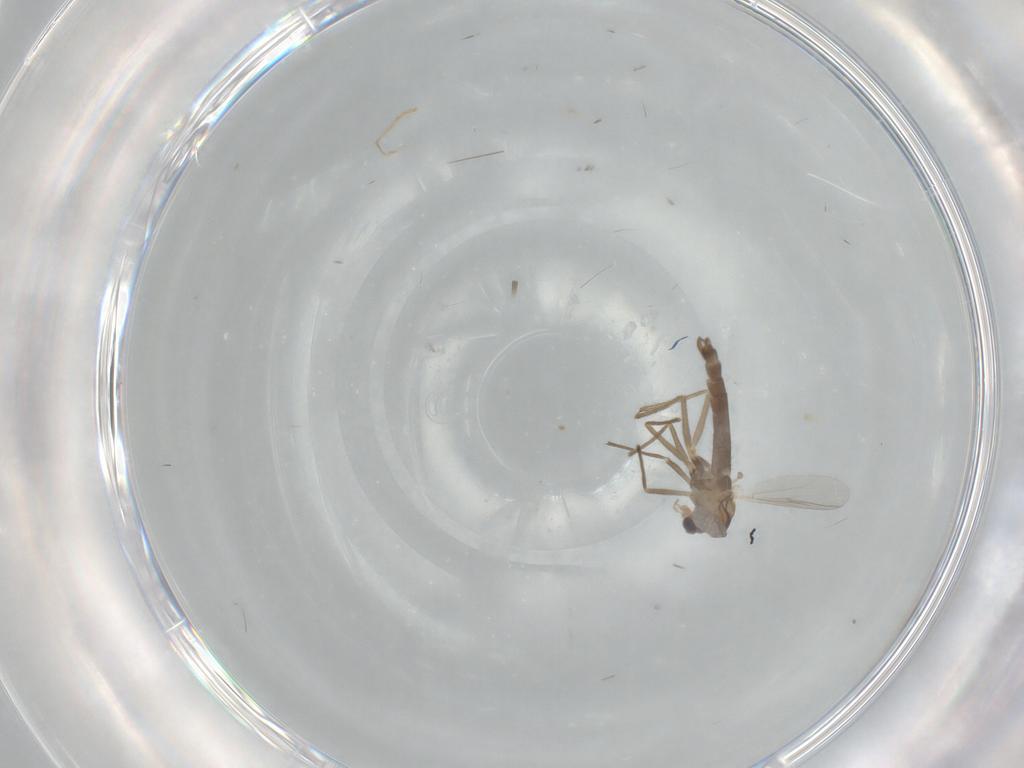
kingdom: Animalia
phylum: Arthropoda
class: Insecta
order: Diptera
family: Chironomidae
